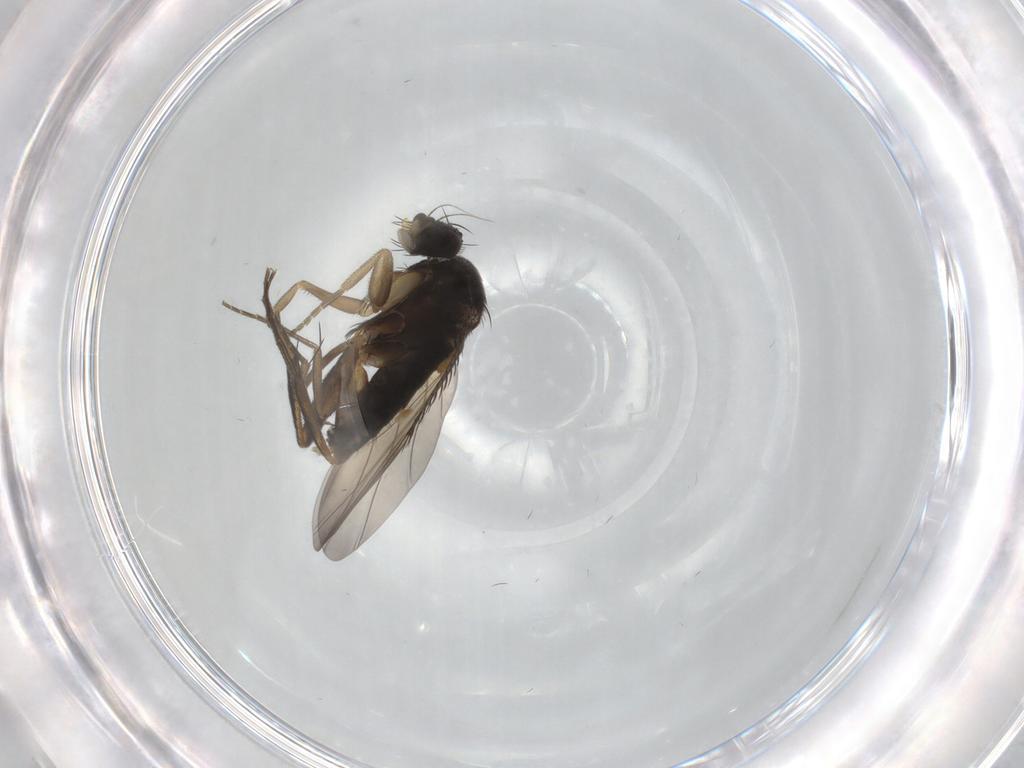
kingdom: Animalia
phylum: Arthropoda
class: Insecta
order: Diptera
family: Phoridae
